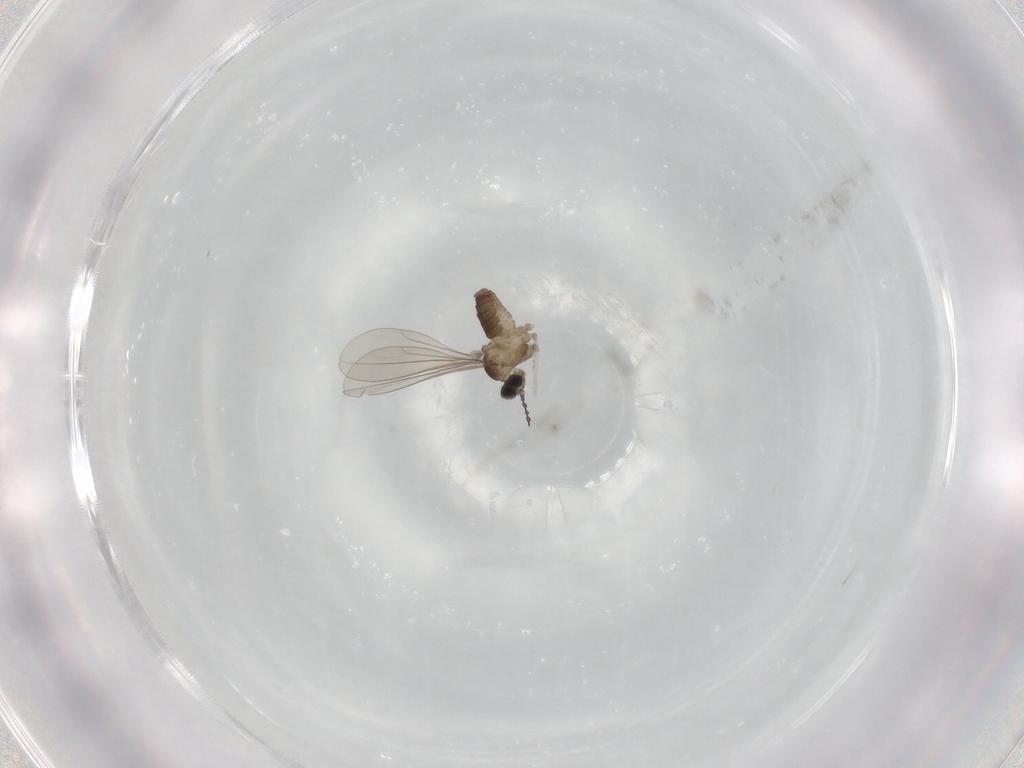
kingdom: Animalia
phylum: Arthropoda
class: Insecta
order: Diptera
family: Cecidomyiidae
